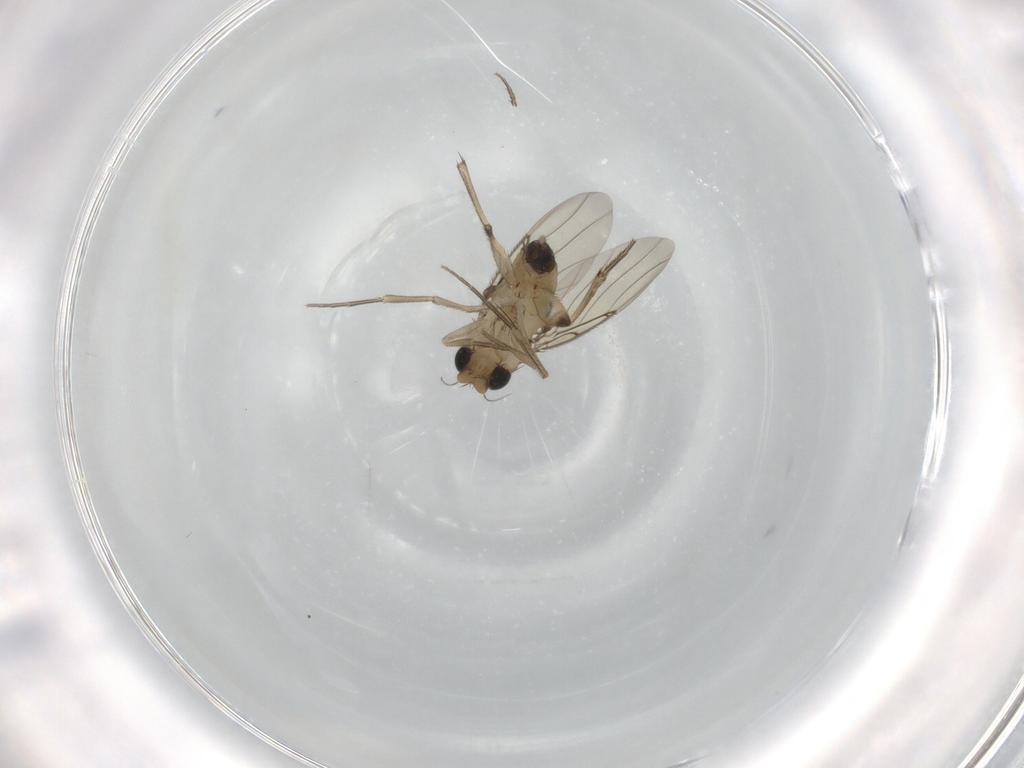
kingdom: Animalia
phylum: Arthropoda
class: Insecta
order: Diptera
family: Phoridae
